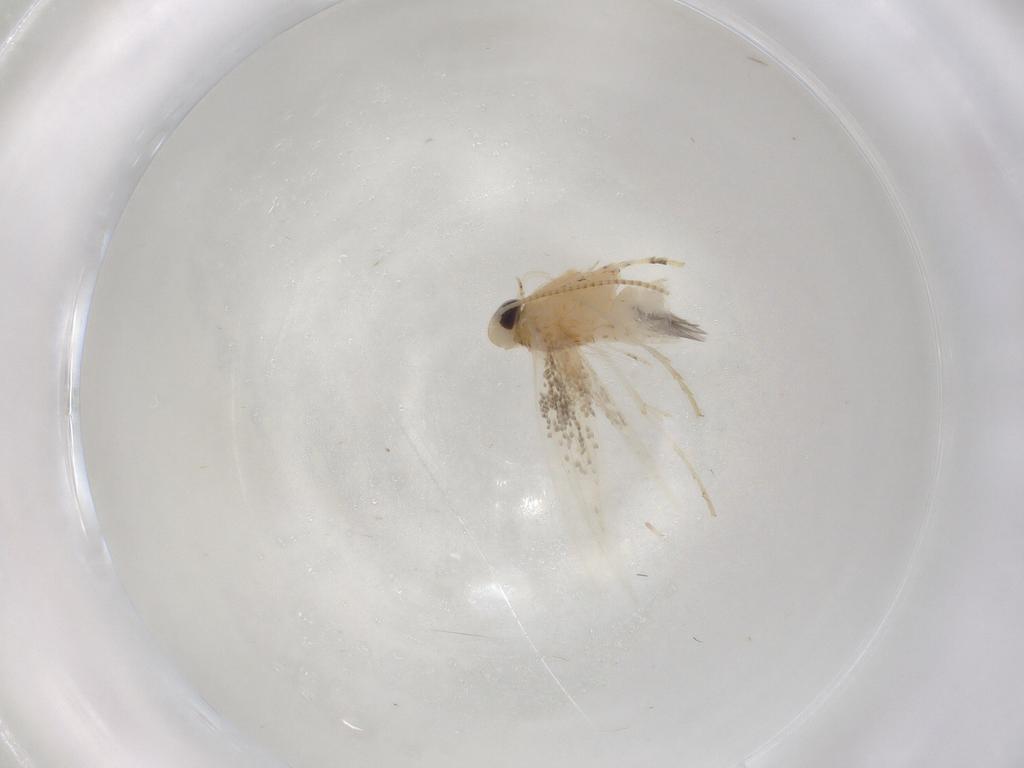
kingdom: Animalia
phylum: Arthropoda
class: Insecta
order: Lepidoptera
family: Gracillariidae
